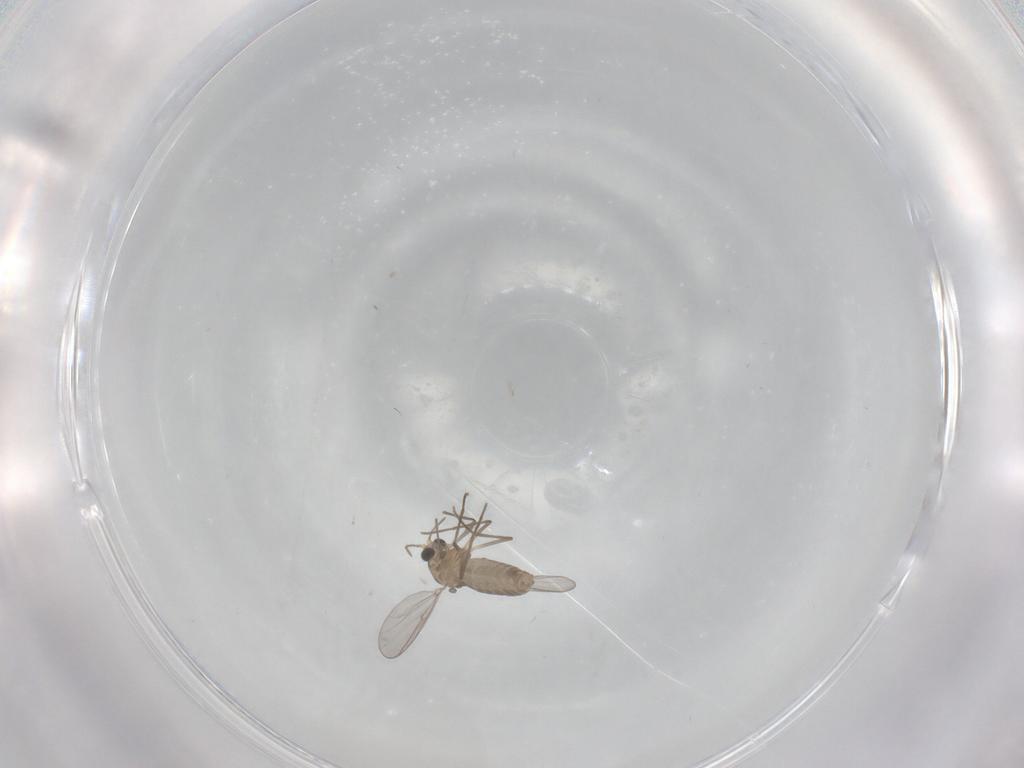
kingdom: Animalia
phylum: Arthropoda
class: Insecta
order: Diptera
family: Chironomidae
